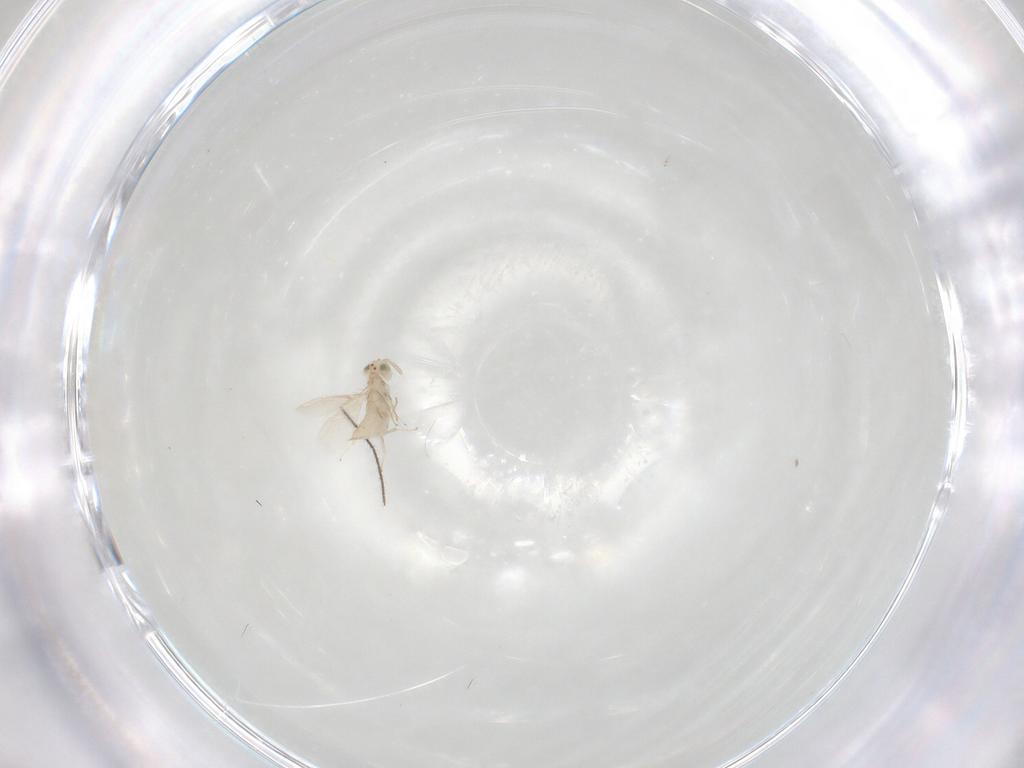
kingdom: Animalia
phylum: Arthropoda
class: Insecta
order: Hymenoptera
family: Aphelinidae
